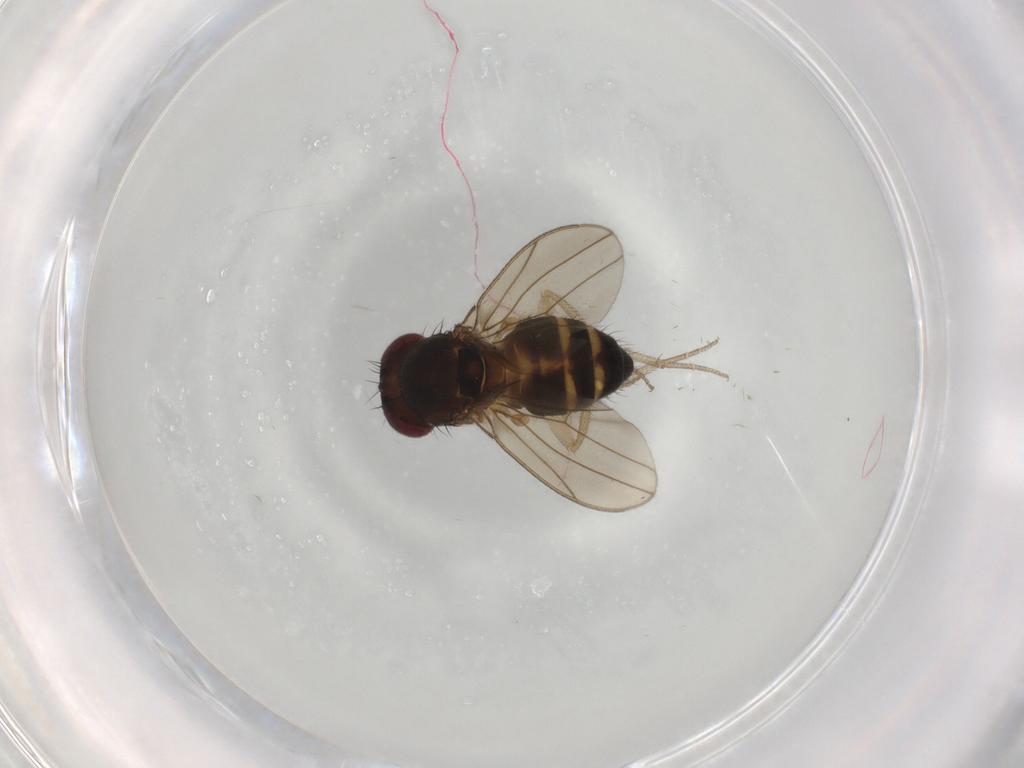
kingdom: Animalia
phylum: Arthropoda
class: Insecta
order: Diptera
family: Drosophilidae
